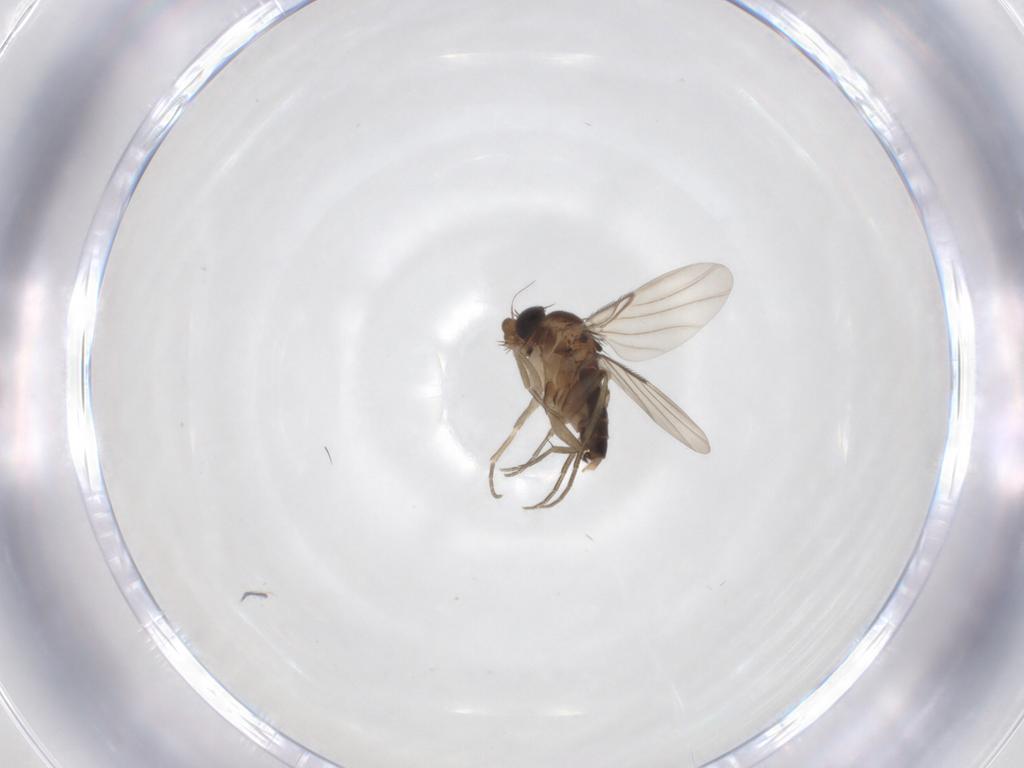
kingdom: Animalia
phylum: Arthropoda
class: Insecta
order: Diptera
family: Phoridae
